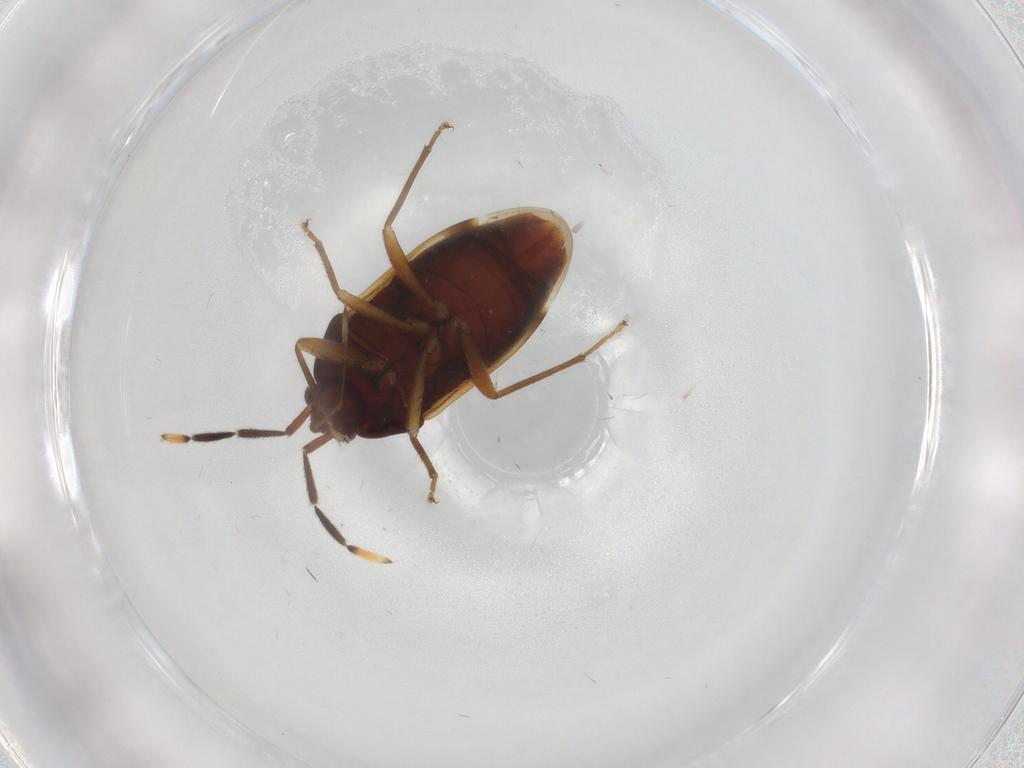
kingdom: Animalia
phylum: Arthropoda
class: Insecta
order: Hemiptera
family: Rhyparochromidae
